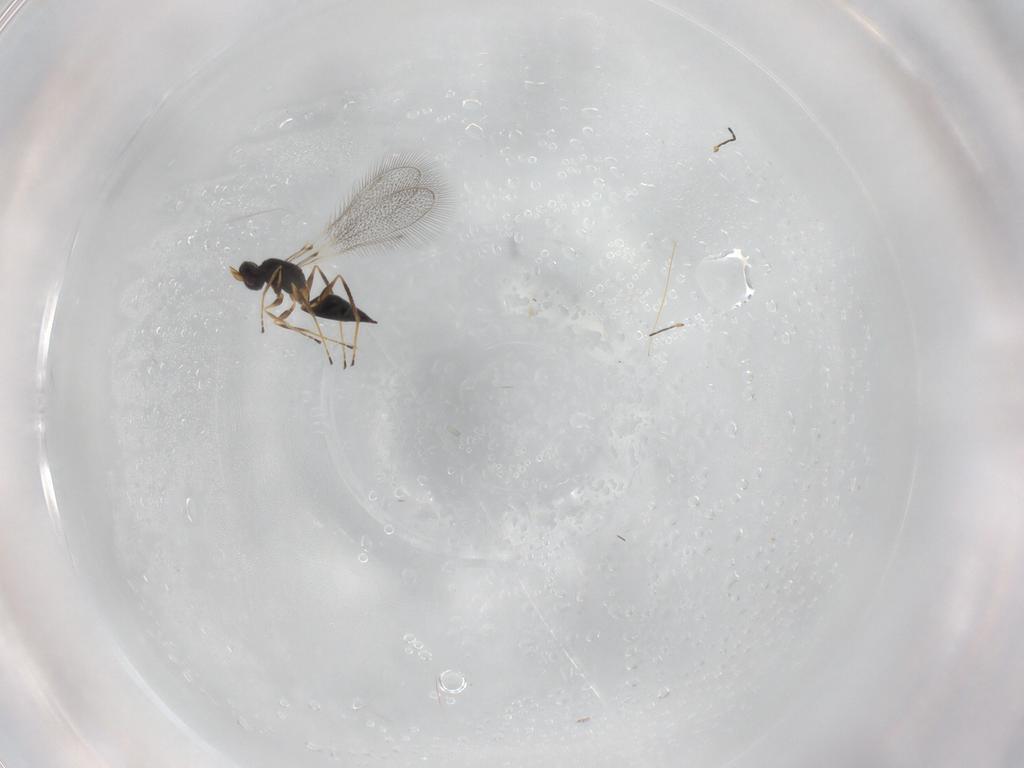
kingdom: Animalia
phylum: Arthropoda
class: Insecta
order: Hymenoptera
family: Mymaridae
